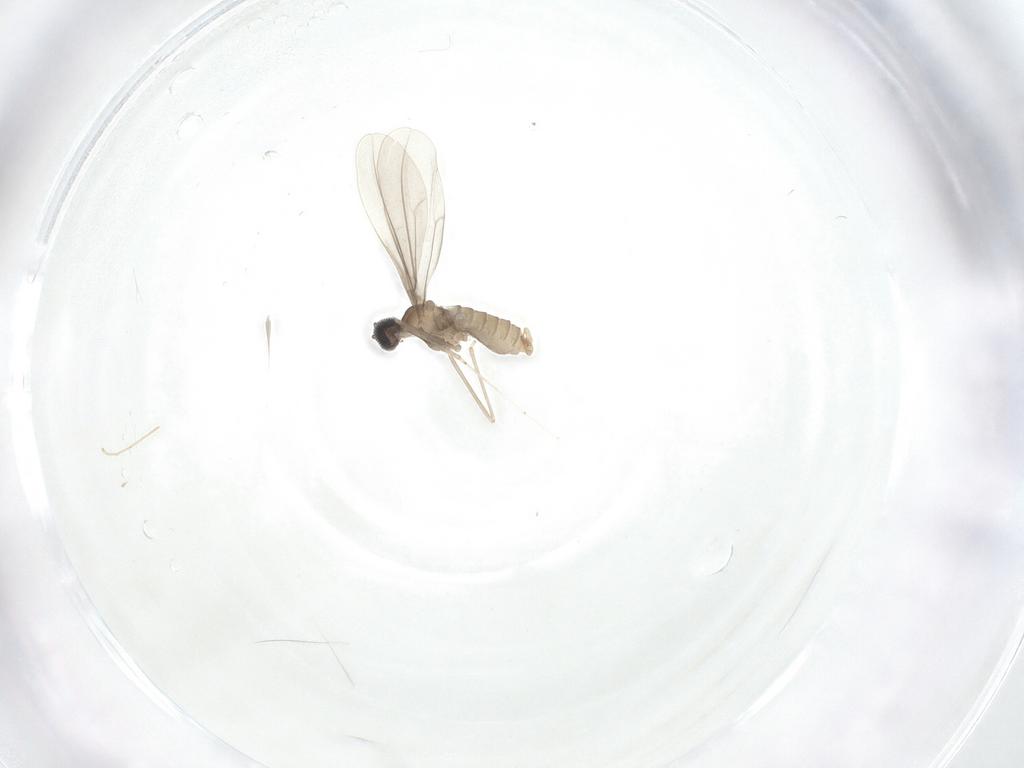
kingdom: Animalia
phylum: Arthropoda
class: Insecta
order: Diptera
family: Cecidomyiidae
